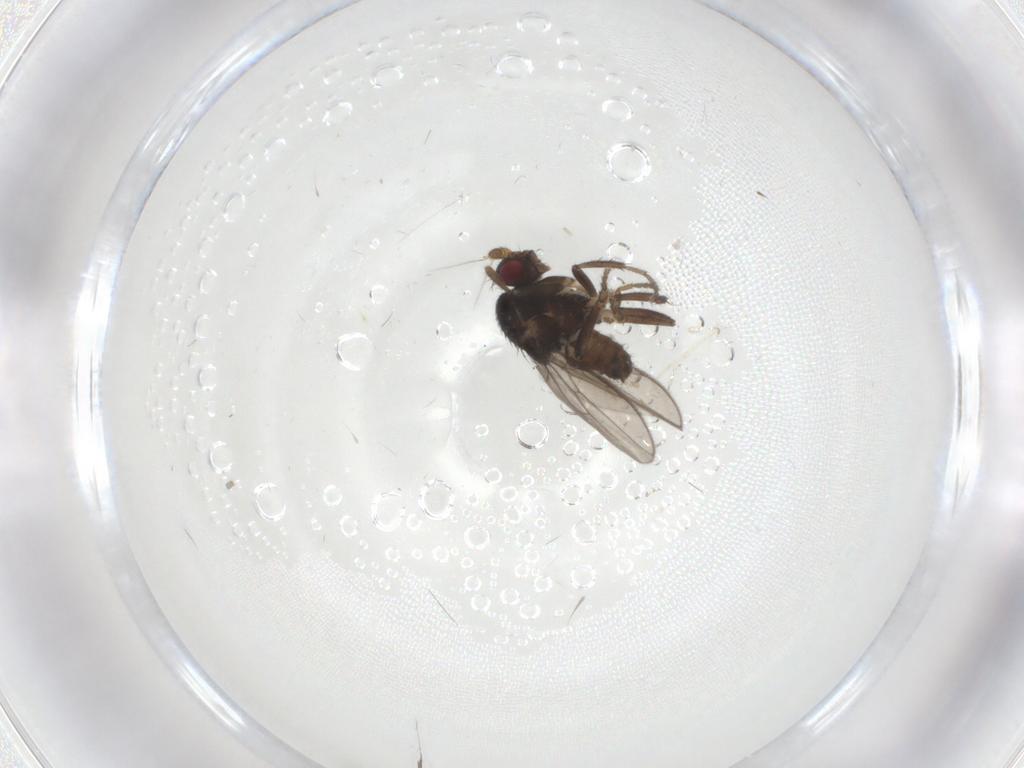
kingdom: Animalia
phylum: Arthropoda
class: Insecta
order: Diptera
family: Sphaeroceridae
